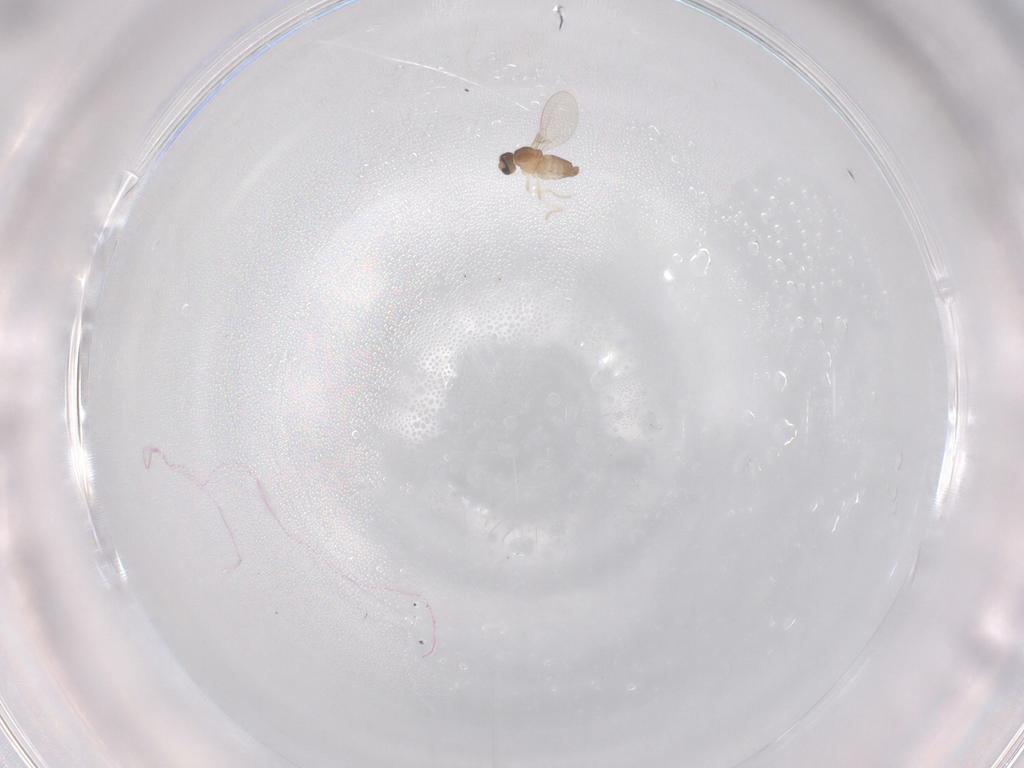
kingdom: Animalia
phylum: Arthropoda
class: Insecta
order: Diptera
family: Cecidomyiidae
